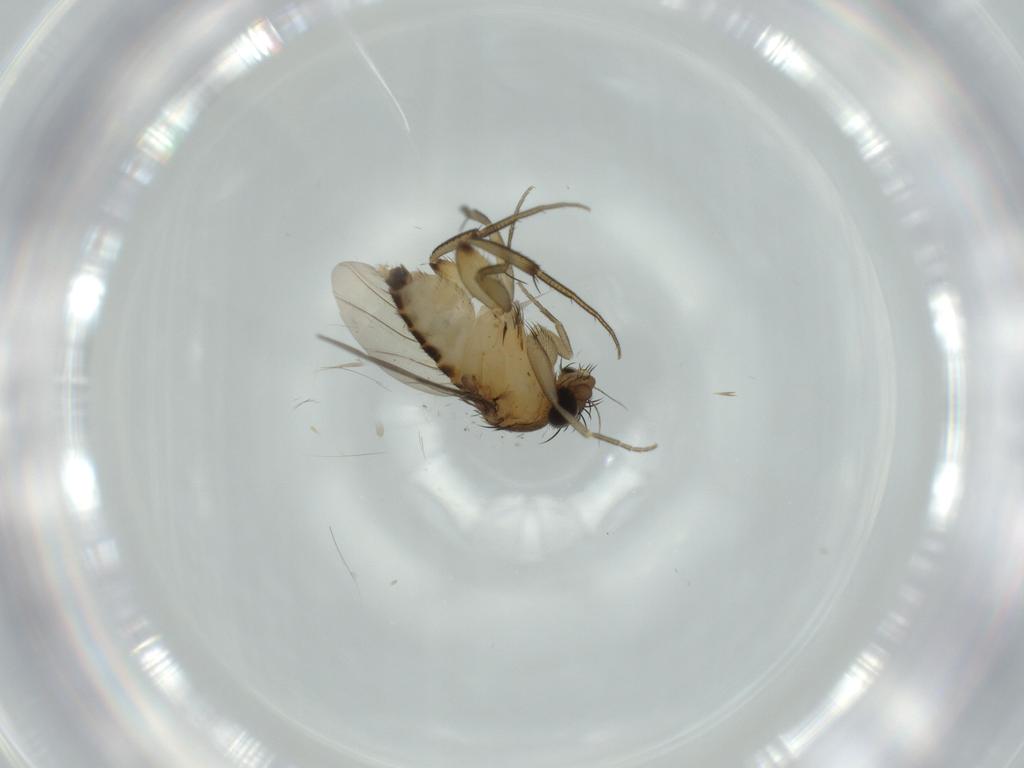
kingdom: Animalia
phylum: Arthropoda
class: Insecta
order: Diptera
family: Phoridae
